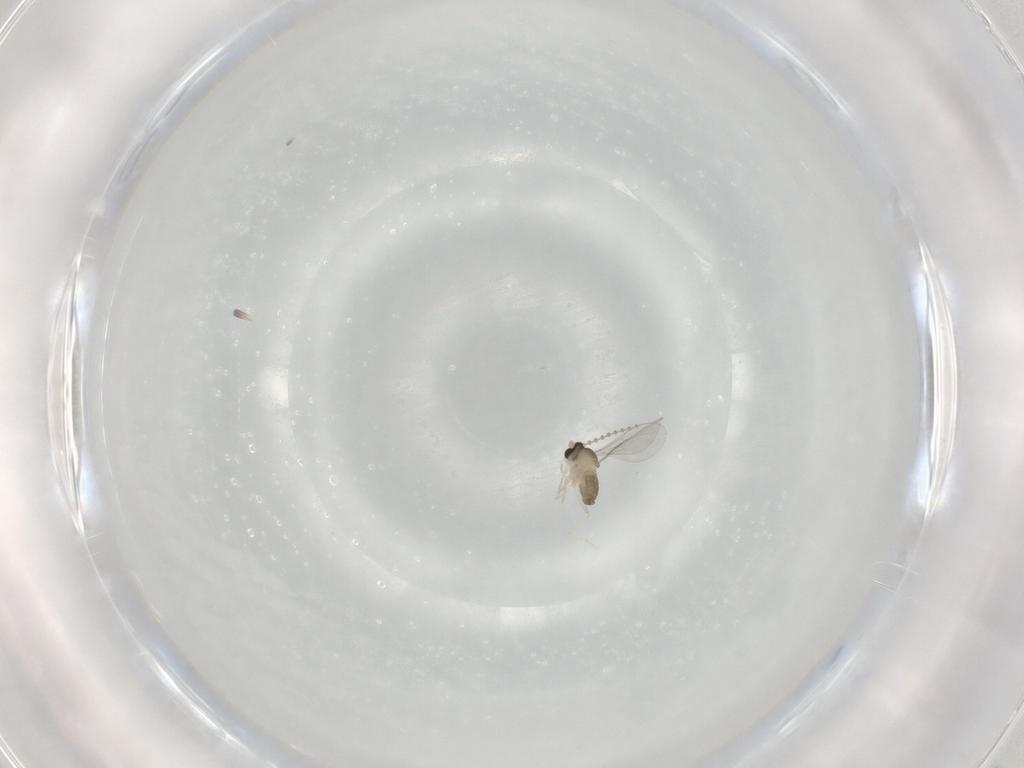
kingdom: Animalia
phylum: Arthropoda
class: Insecta
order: Diptera
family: Cecidomyiidae
